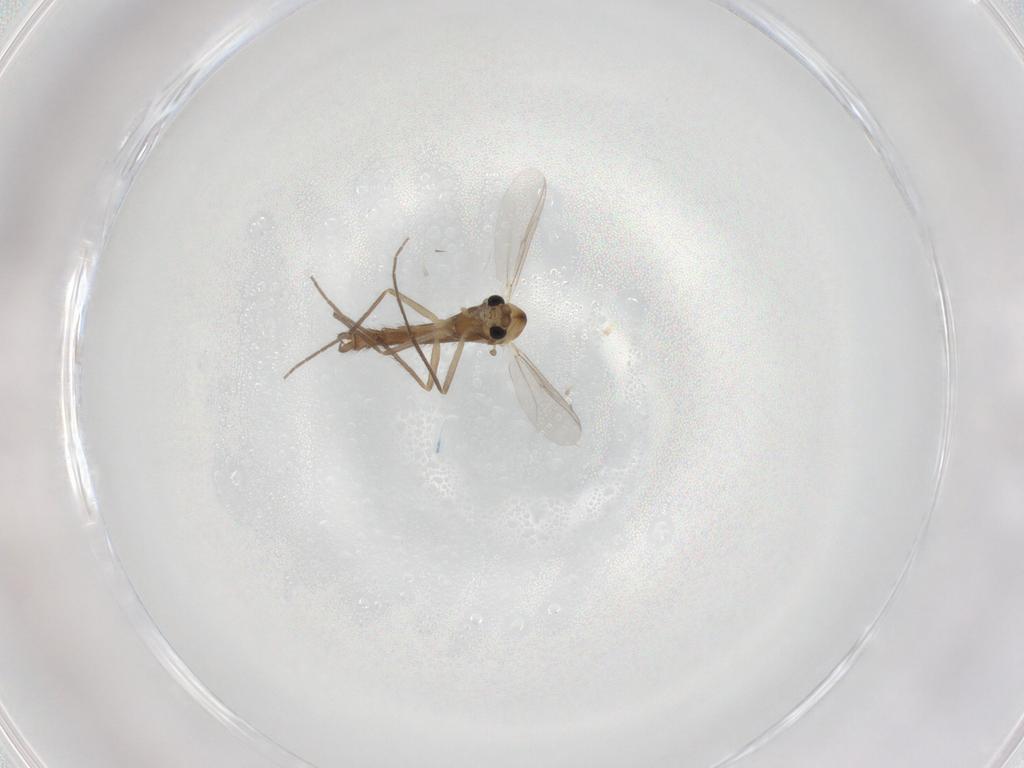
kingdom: Animalia
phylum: Arthropoda
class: Insecta
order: Diptera
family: Chironomidae
